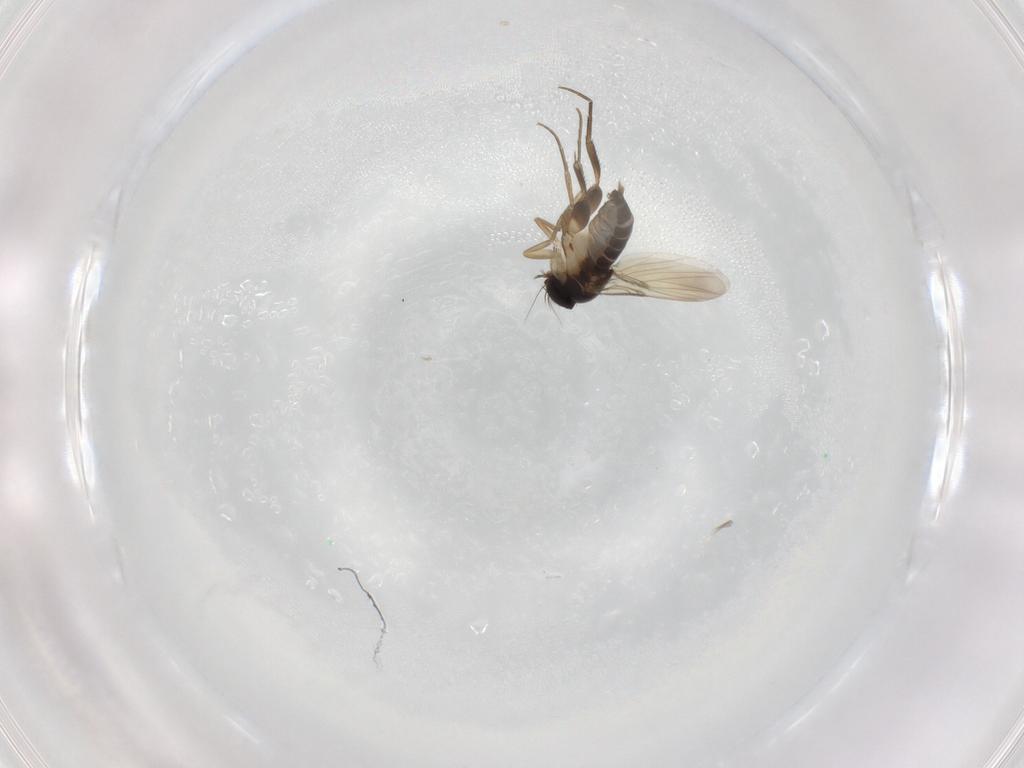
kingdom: Animalia
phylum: Arthropoda
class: Insecta
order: Diptera
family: Phoridae
